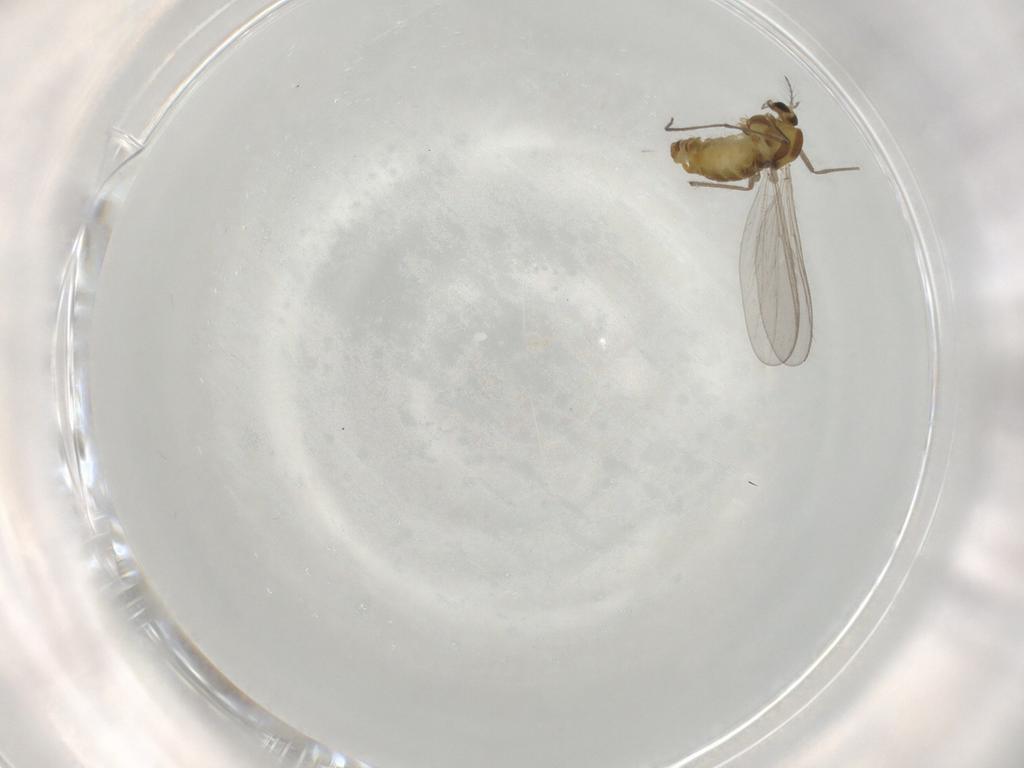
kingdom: Animalia
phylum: Arthropoda
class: Insecta
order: Diptera
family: Chironomidae
